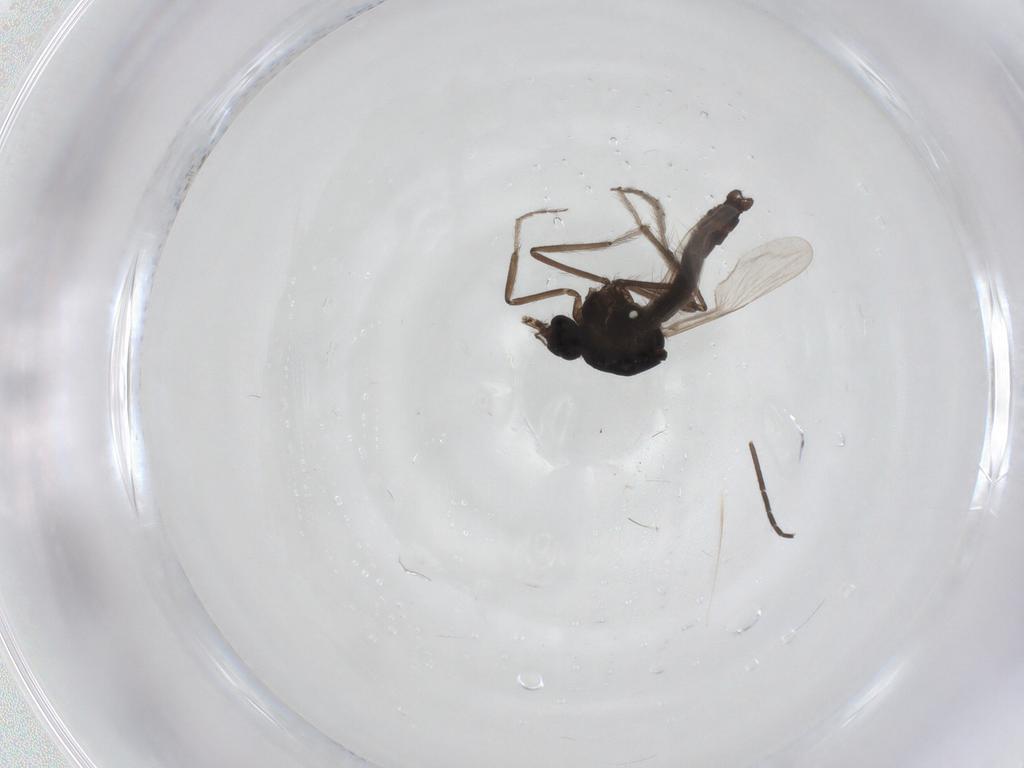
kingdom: Animalia
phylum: Arthropoda
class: Insecta
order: Diptera
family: Ceratopogonidae
